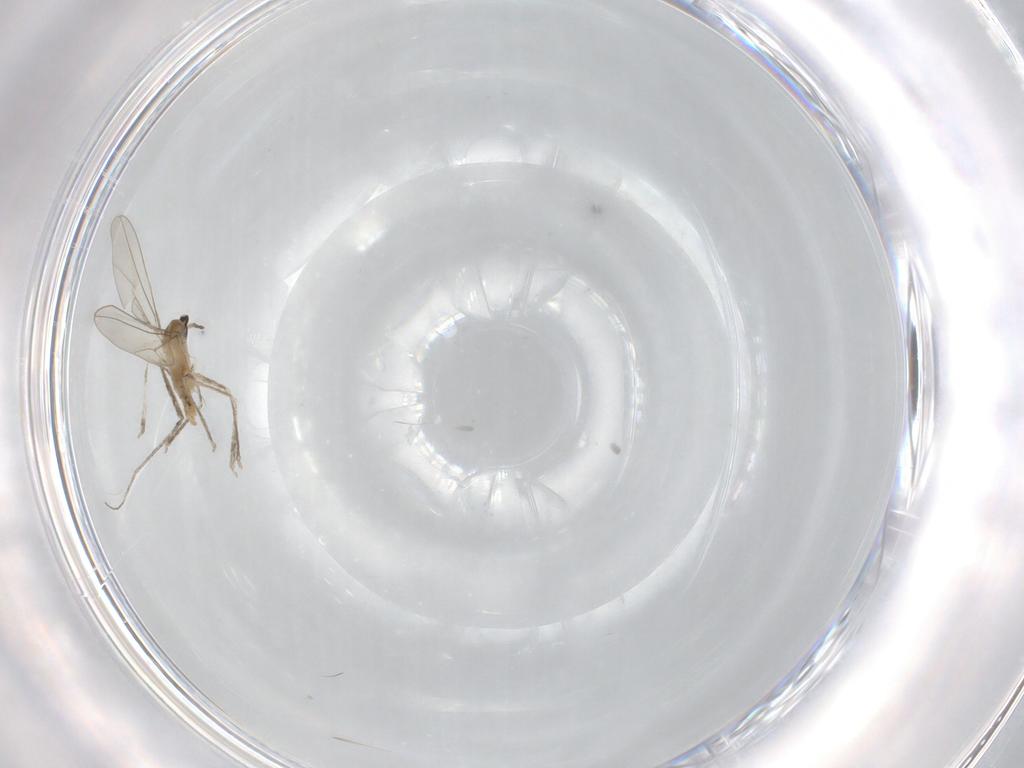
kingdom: Animalia
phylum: Arthropoda
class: Insecta
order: Diptera
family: Cecidomyiidae
